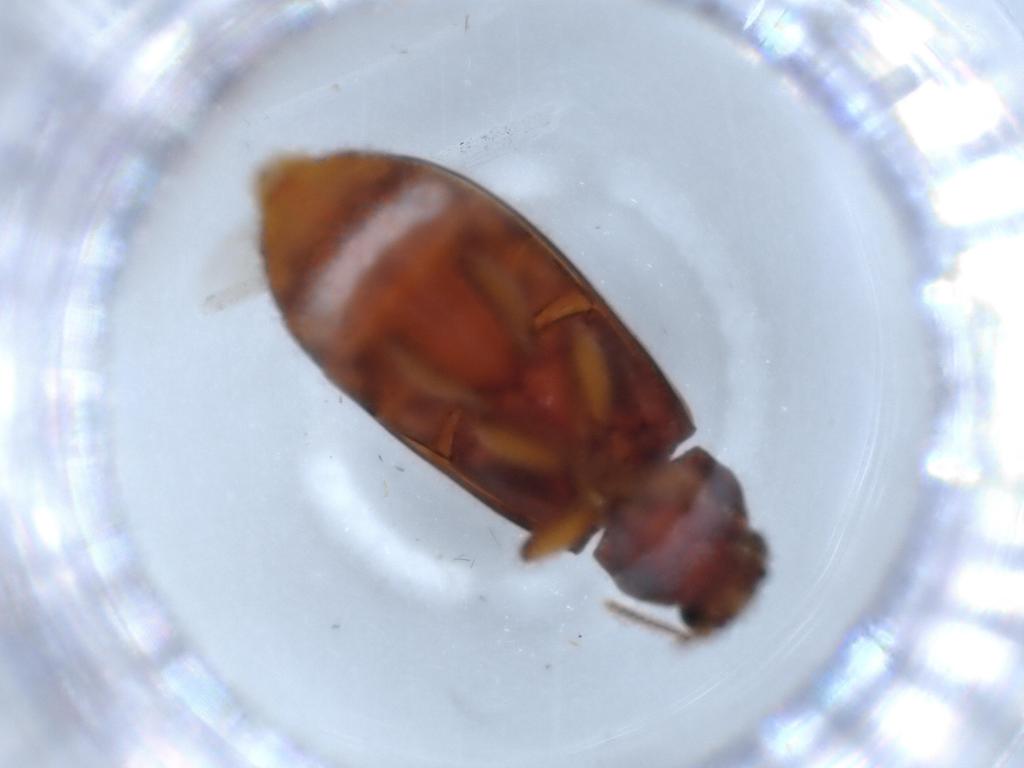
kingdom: Animalia
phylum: Arthropoda
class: Insecta
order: Coleoptera
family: Mycteridae
